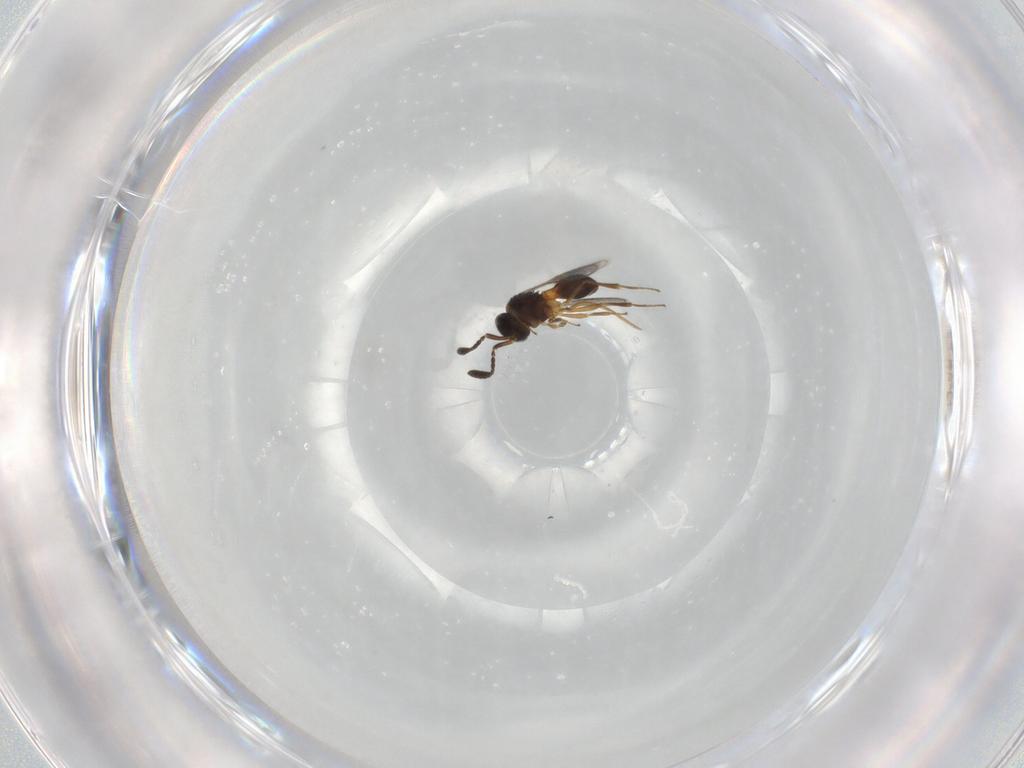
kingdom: Animalia
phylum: Arthropoda
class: Insecta
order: Hymenoptera
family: Scelionidae
